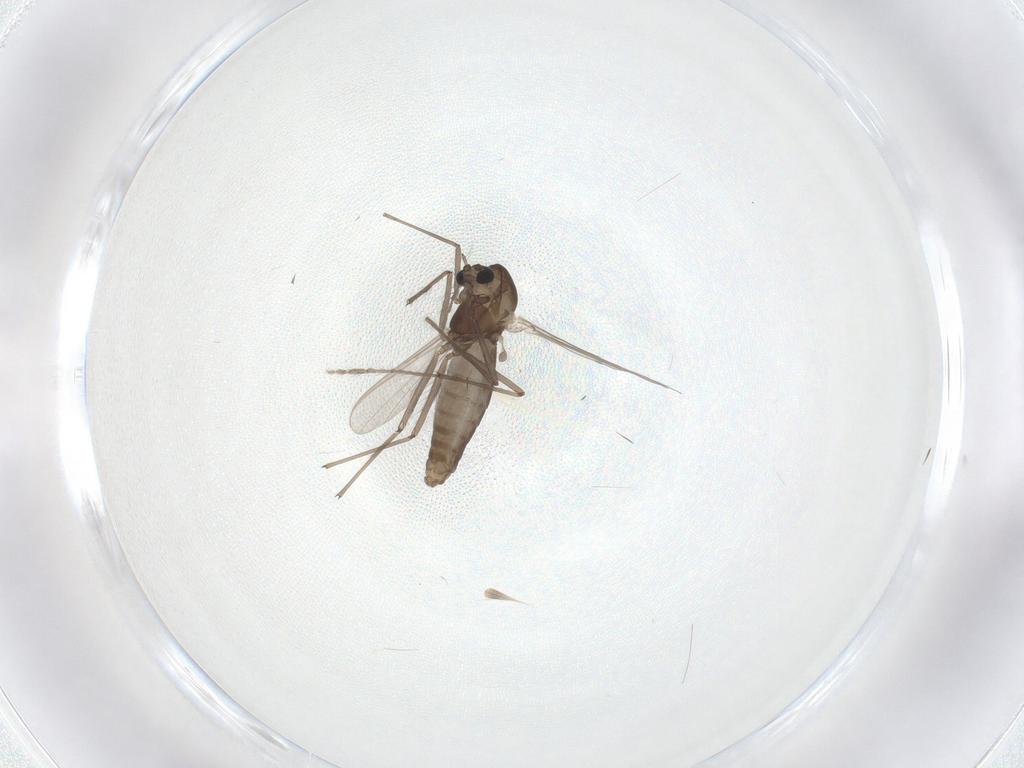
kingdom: Animalia
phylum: Arthropoda
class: Insecta
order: Diptera
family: Chironomidae
